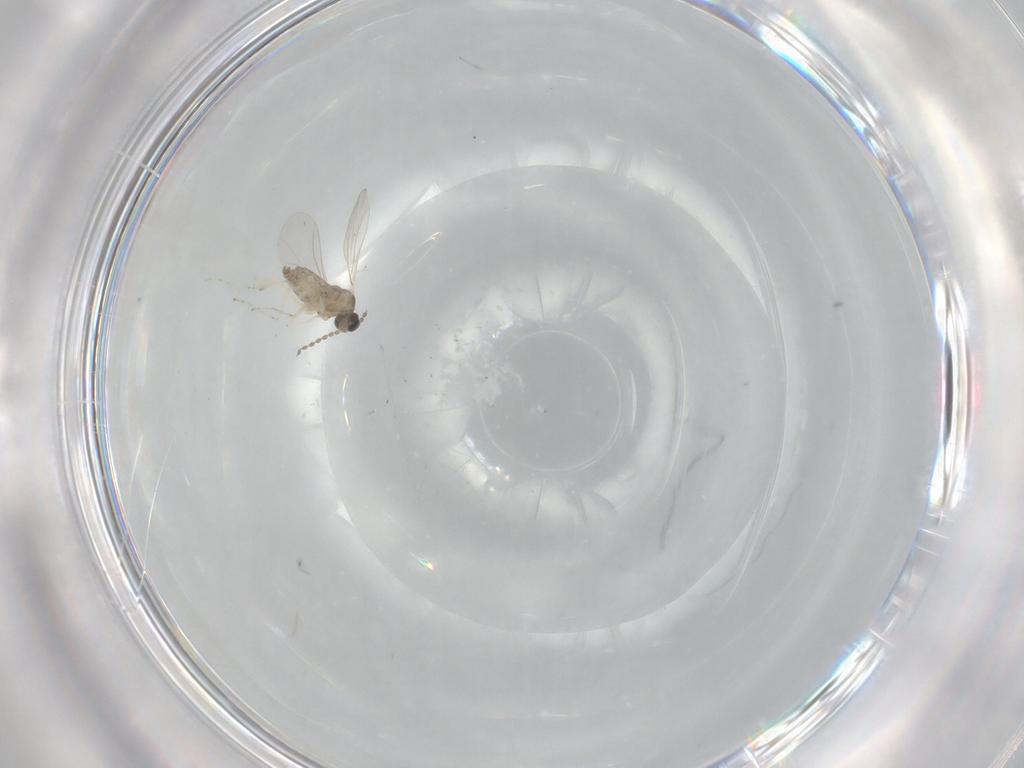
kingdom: Animalia
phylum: Arthropoda
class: Insecta
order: Diptera
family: Cecidomyiidae
